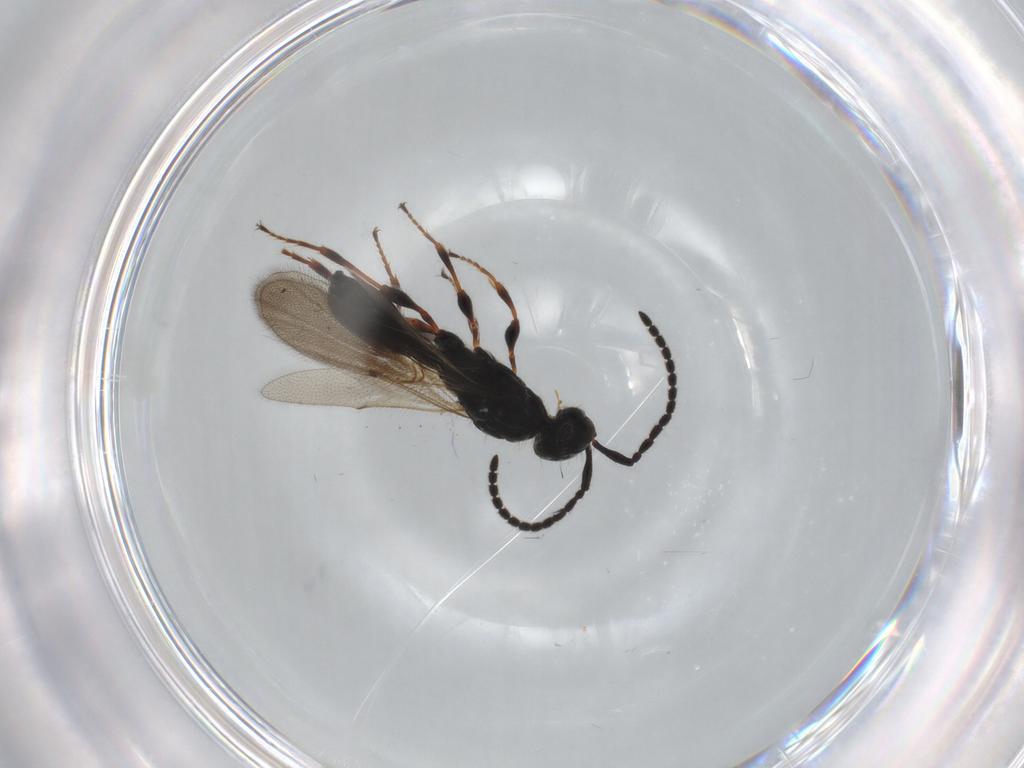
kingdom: Animalia
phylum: Arthropoda
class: Insecta
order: Hymenoptera
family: Diapriidae
